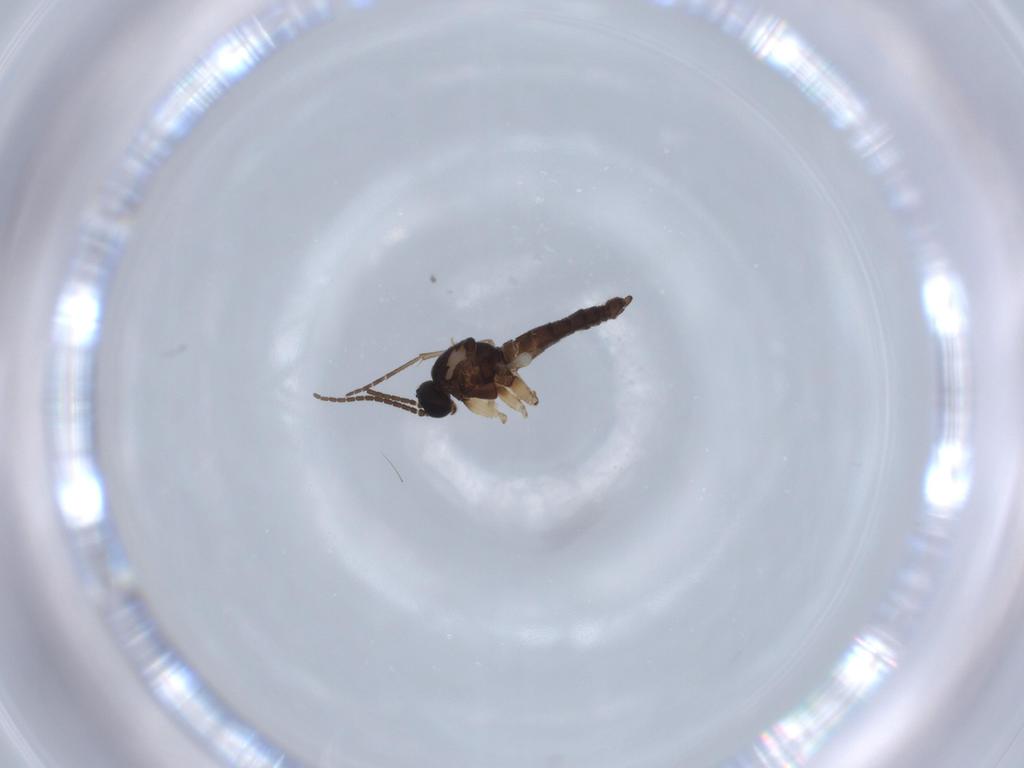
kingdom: Animalia
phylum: Arthropoda
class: Insecta
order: Diptera
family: Sciaridae
